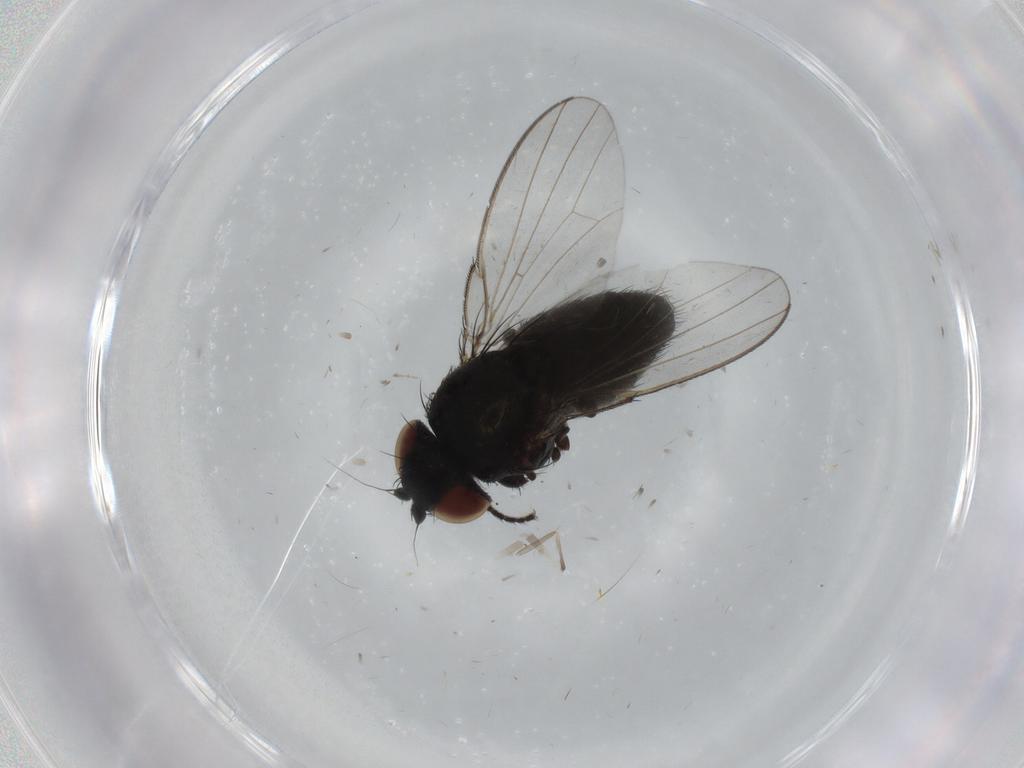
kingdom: Animalia
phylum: Arthropoda
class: Insecta
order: Diptera
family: Milichiidae
